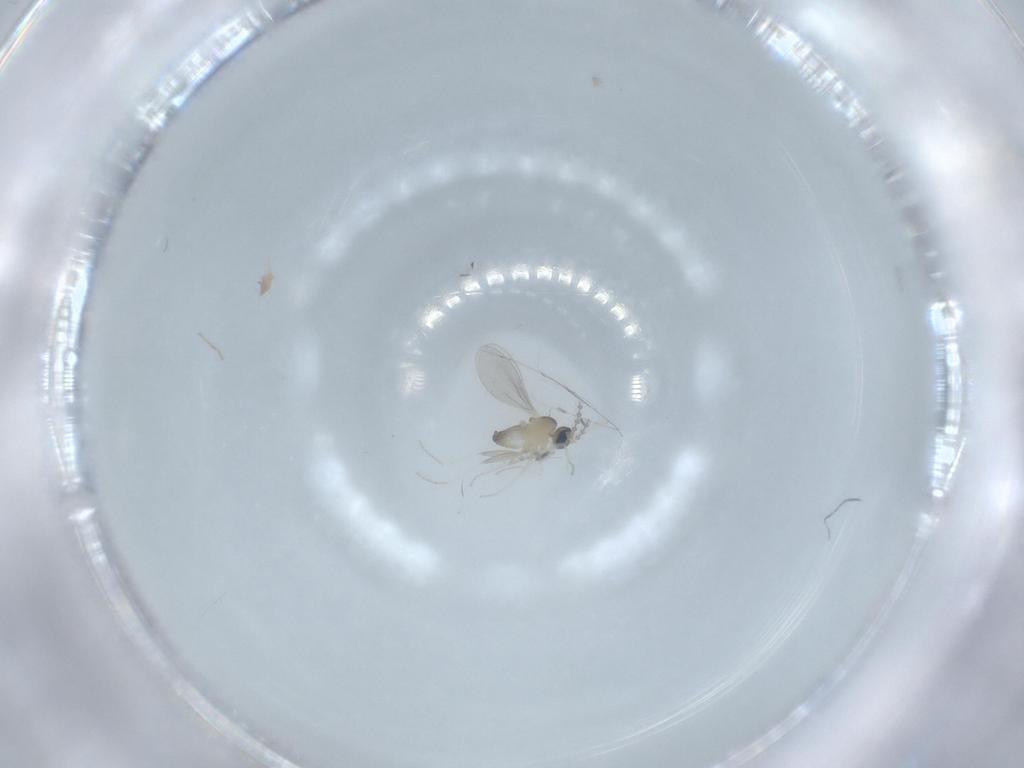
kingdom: Animalia
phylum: Arthropoda
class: Insecta
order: Diptera
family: Cecidomyiidae
